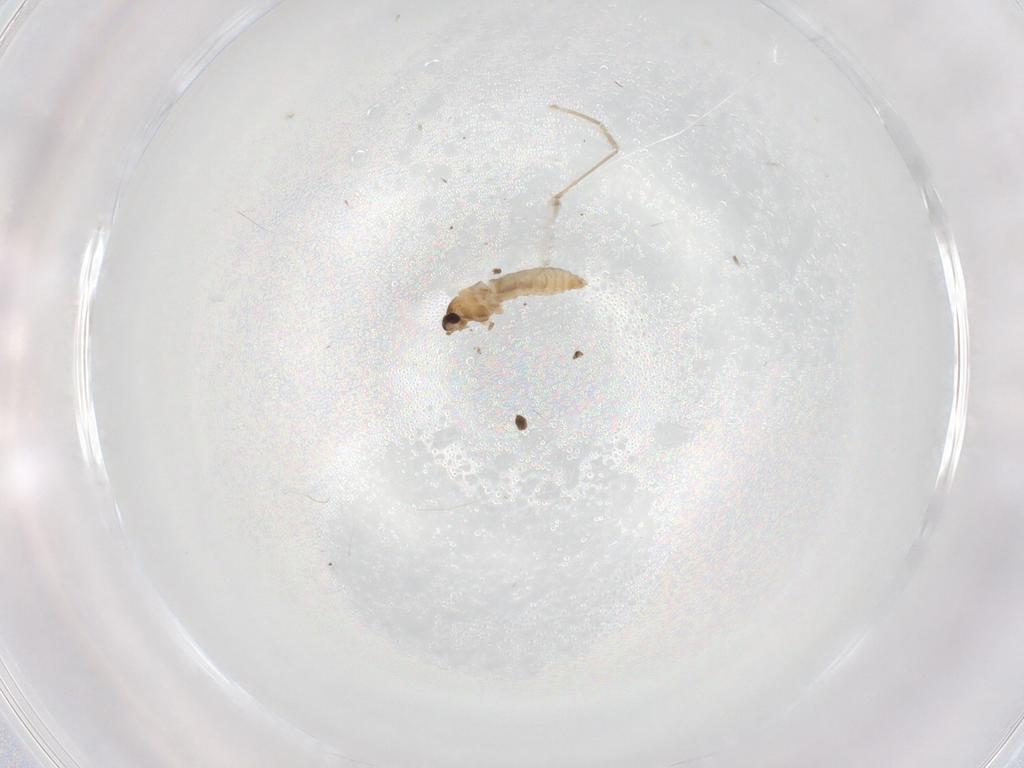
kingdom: Animalia
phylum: Arthropoda
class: Insecta
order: Diptera
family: Cecidomyiidae
